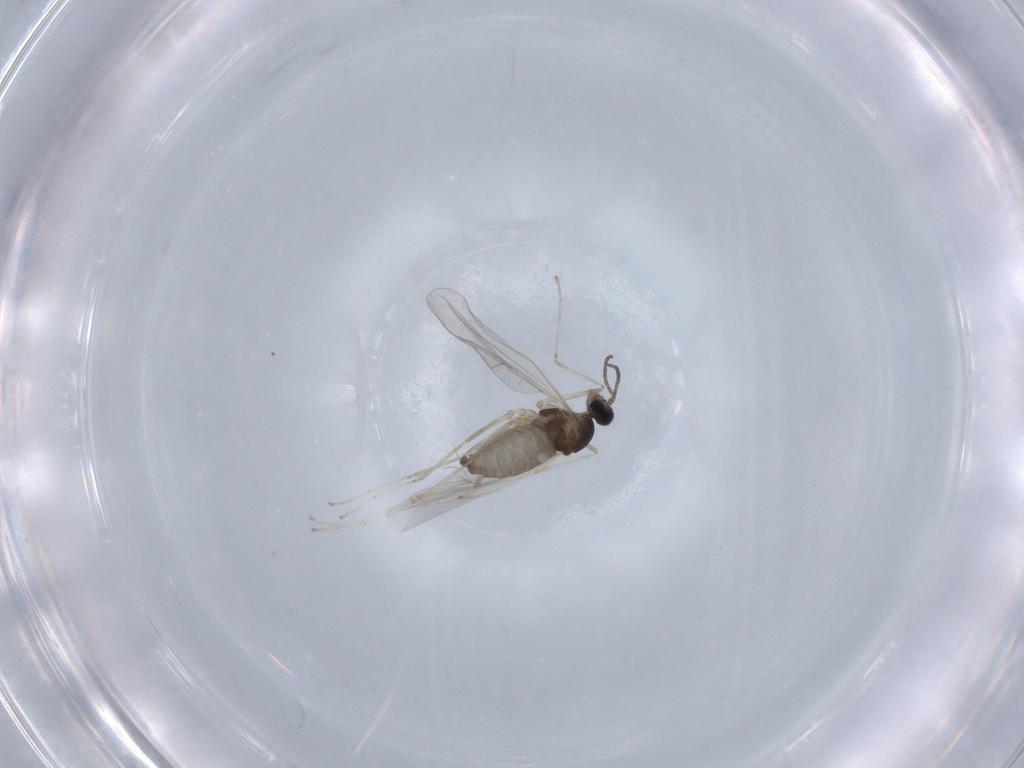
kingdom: Animalia
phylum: Arthropoda
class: Insecta
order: Diptera
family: Cecidomyiidae
